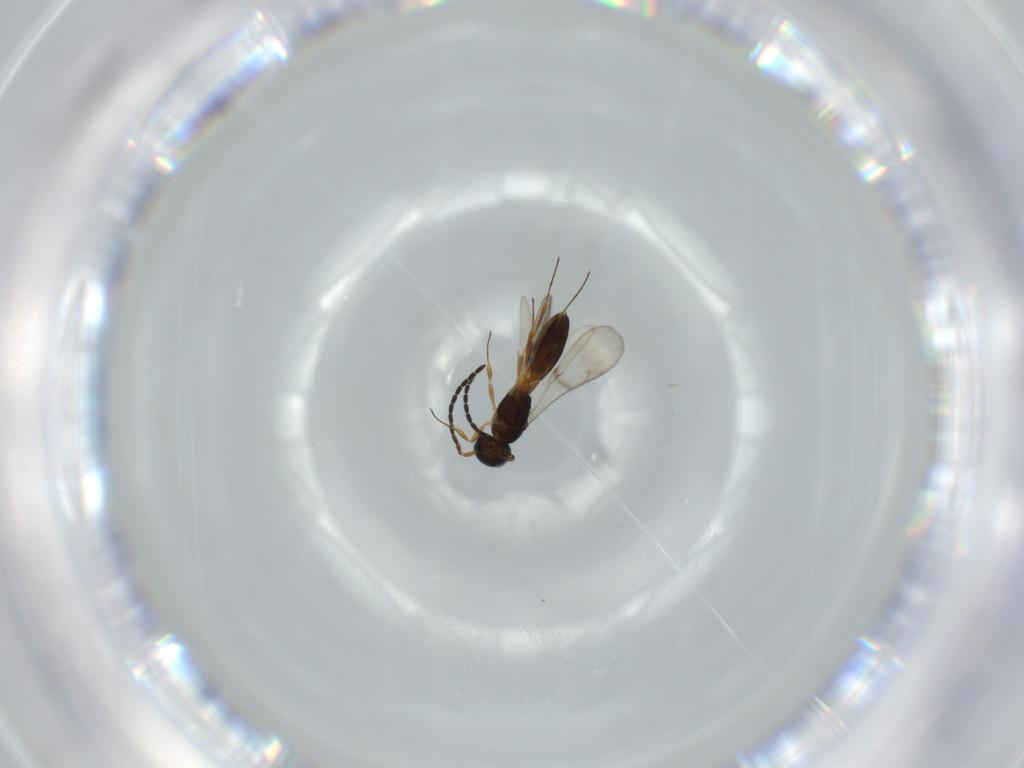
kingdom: Animalia
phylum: Arthropoda
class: Insecta
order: Hymenoptera
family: Scelionidae
